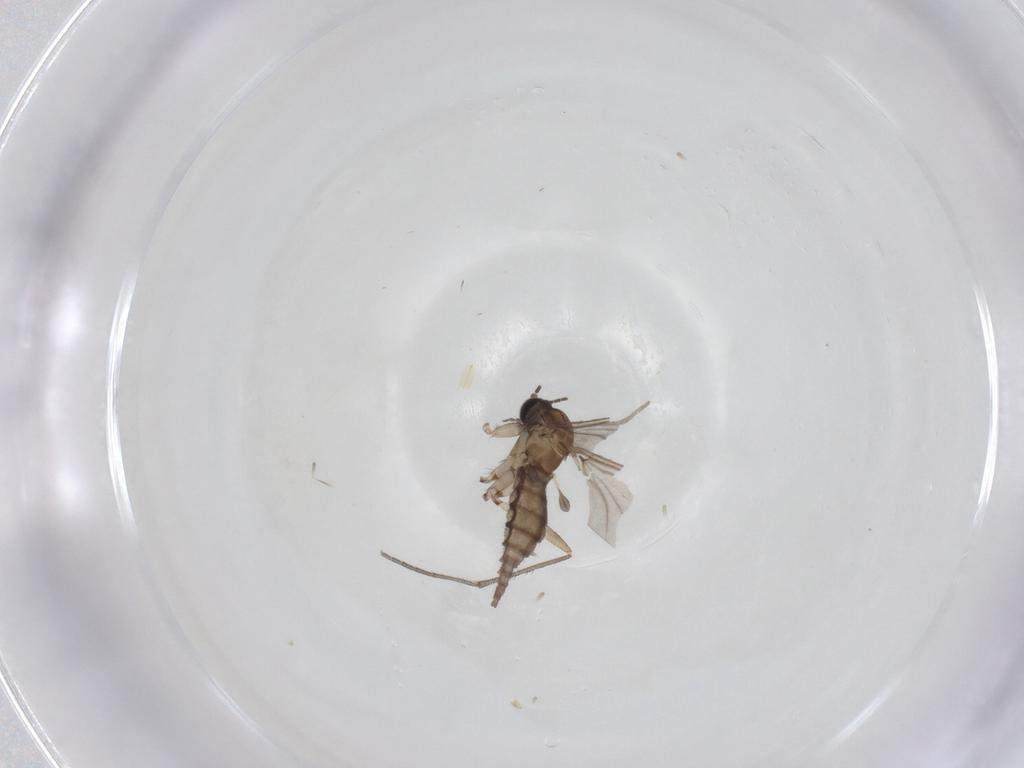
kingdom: Animalia
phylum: Arthropoda
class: Insecta
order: Diptera
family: Sciaridae
